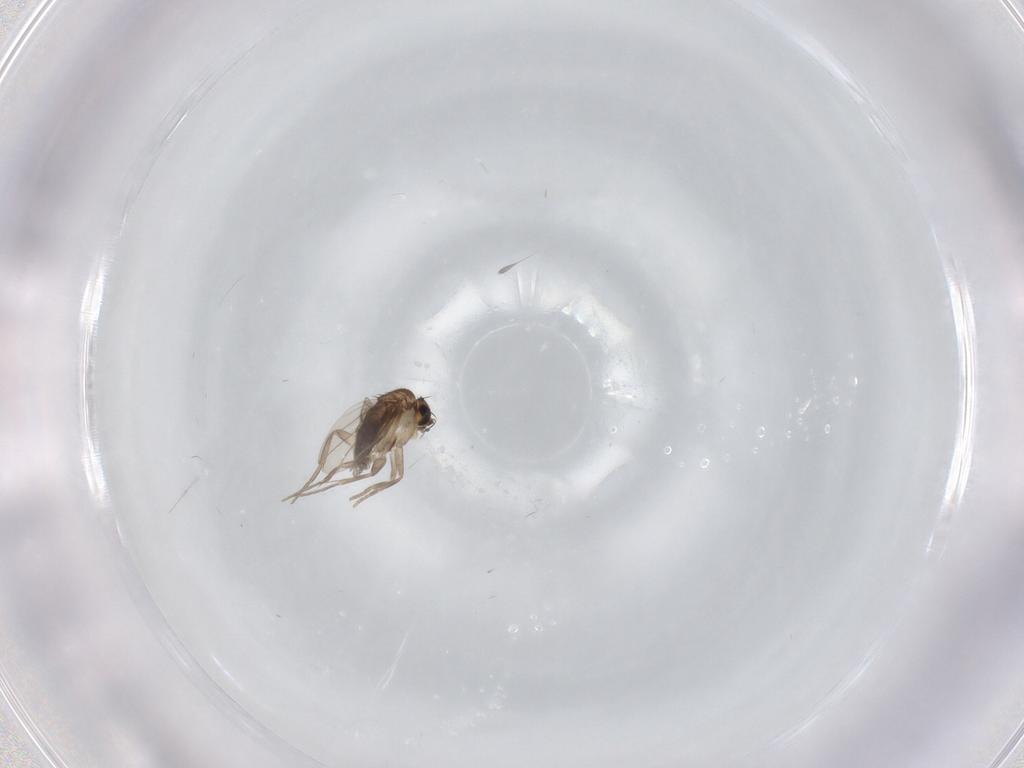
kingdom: Animalia
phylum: Arthropoda
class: Insecta
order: Diptera
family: Phoridae
